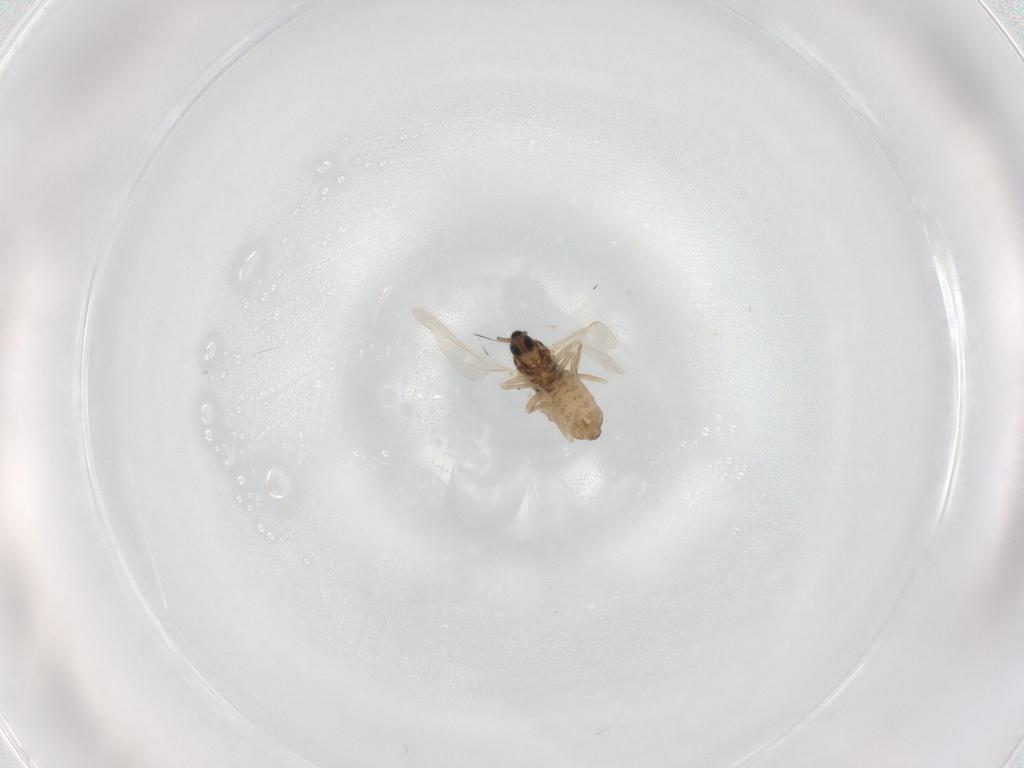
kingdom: Animalia
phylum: Arthropoda
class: Insecta
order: Diptera
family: Cecidomyiidae
